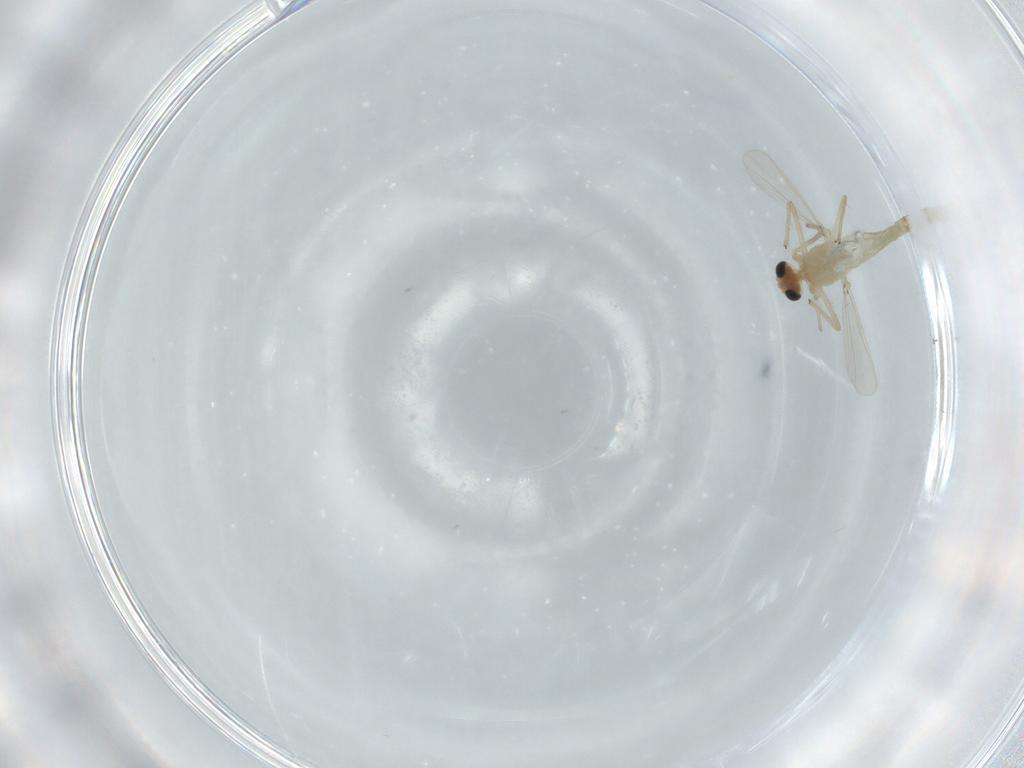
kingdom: Animalia
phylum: Arthropoda
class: Insecta
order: Diptera
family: Chironomidae
